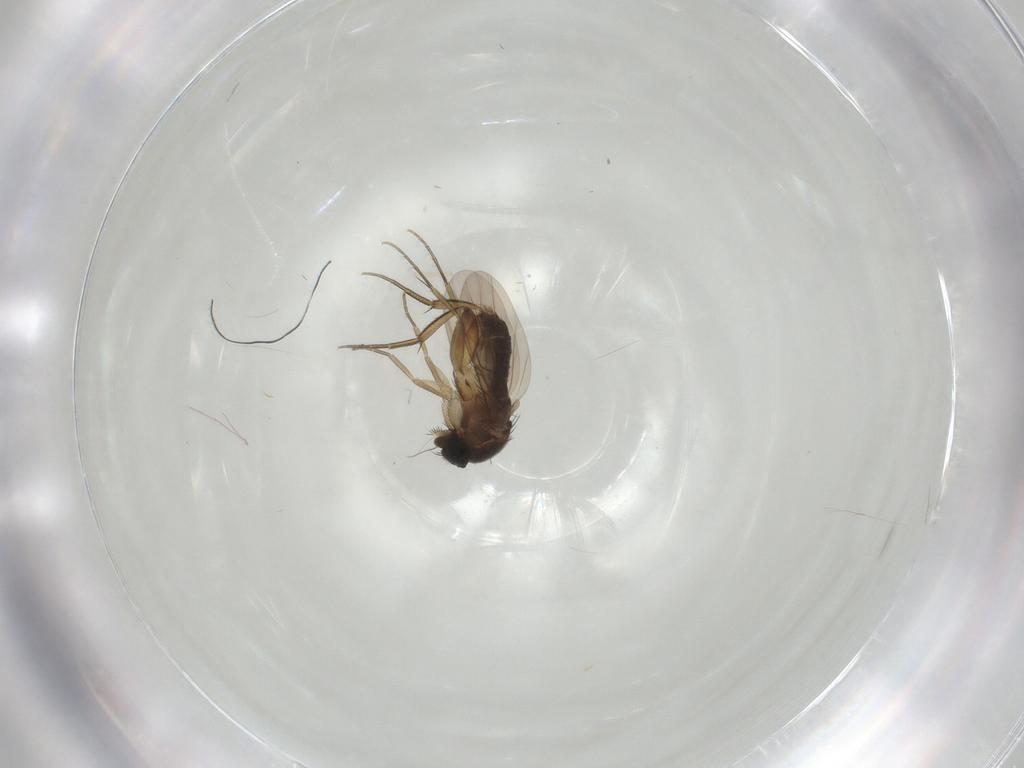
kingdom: Animalia
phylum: Arthropoda
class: Insecta
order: Diptera
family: Phoridae
